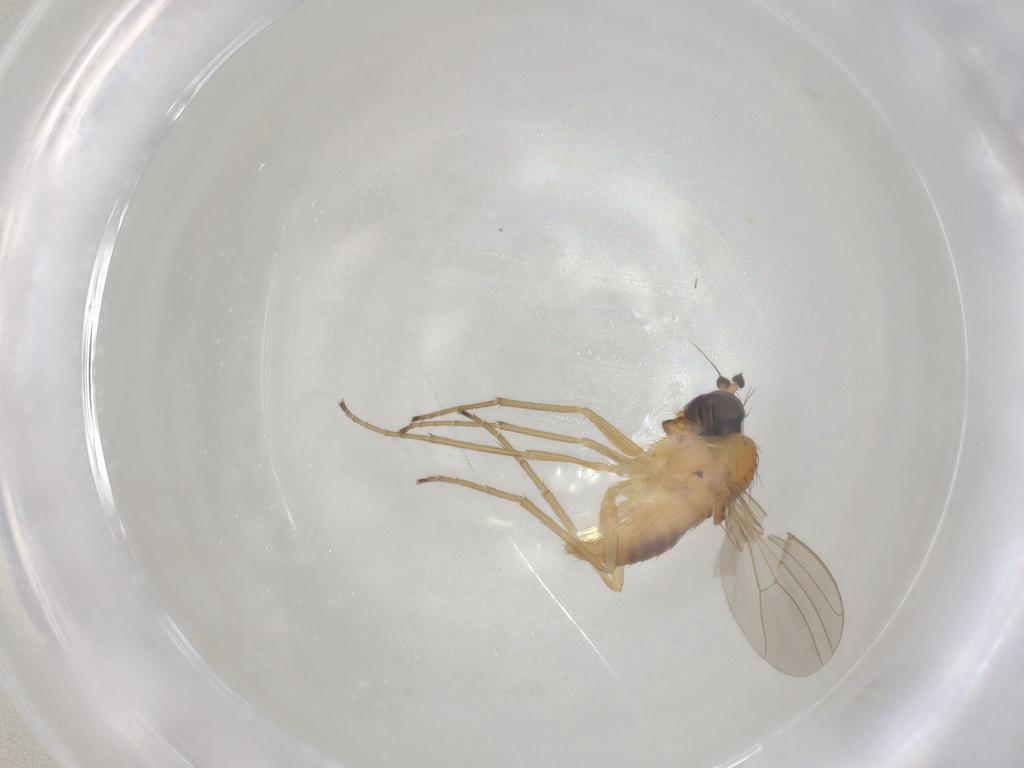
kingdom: Animalia
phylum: Arthropoda
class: Insecta
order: Diptera
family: Dolichopodidae
